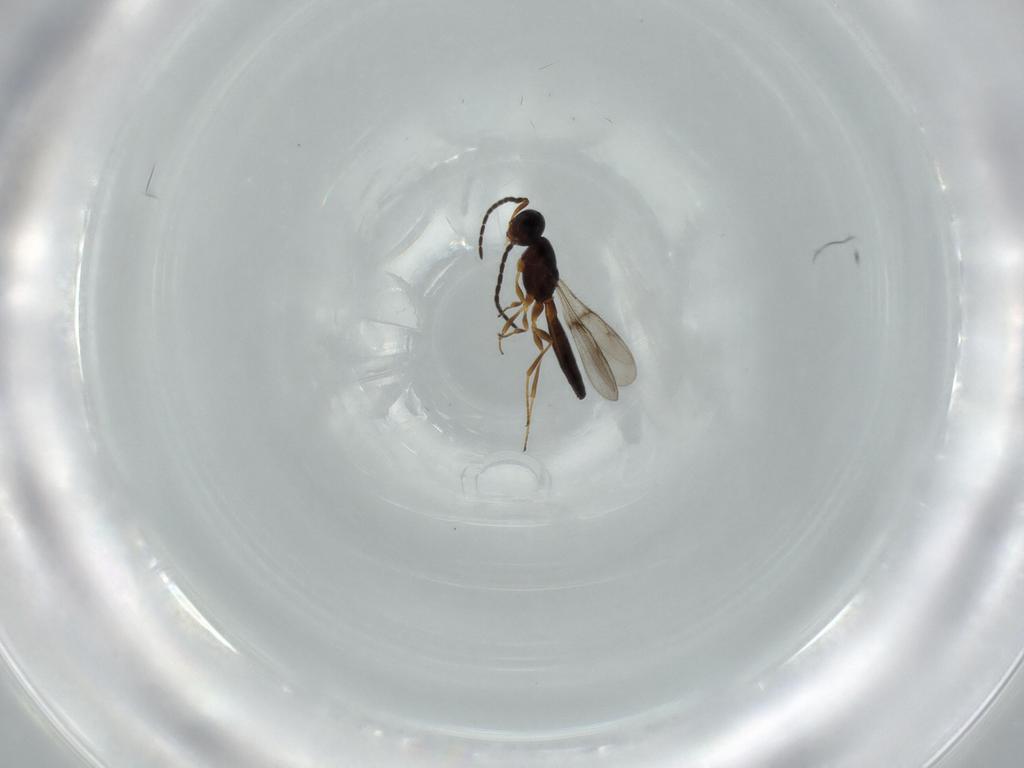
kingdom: Animalia
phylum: Arthropoda
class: Insecta
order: Hymenoptera
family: Scelionidae
